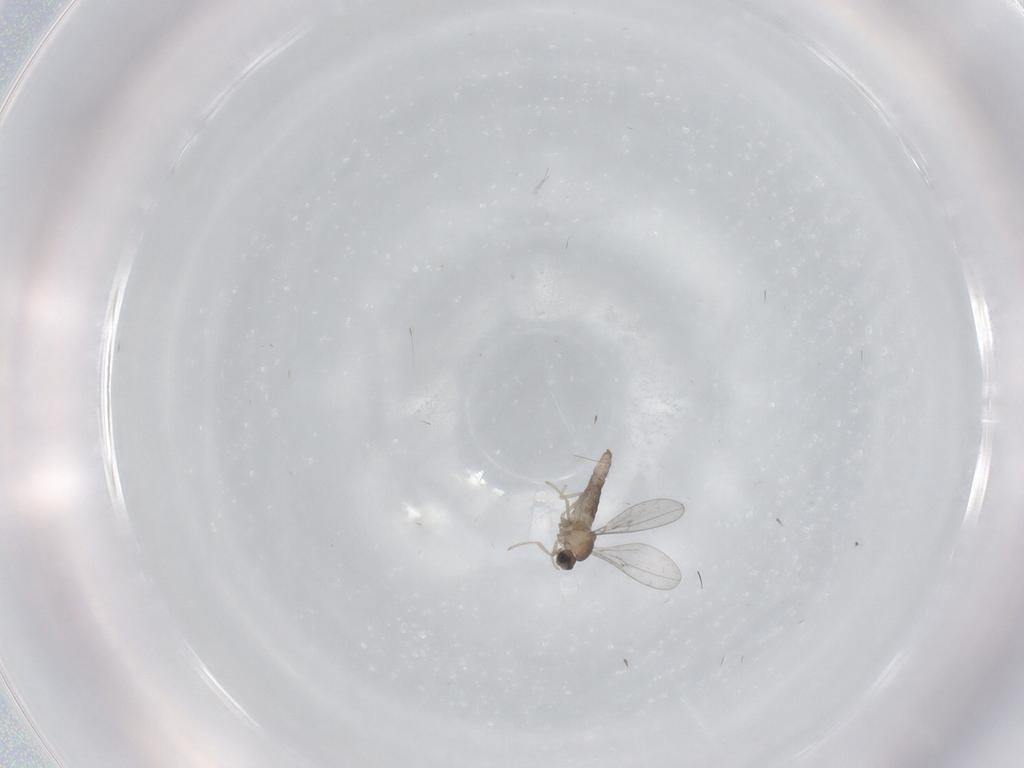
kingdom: Animalia
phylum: Arthropoda
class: Insecta
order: Diptera
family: Cecidomyiidae
